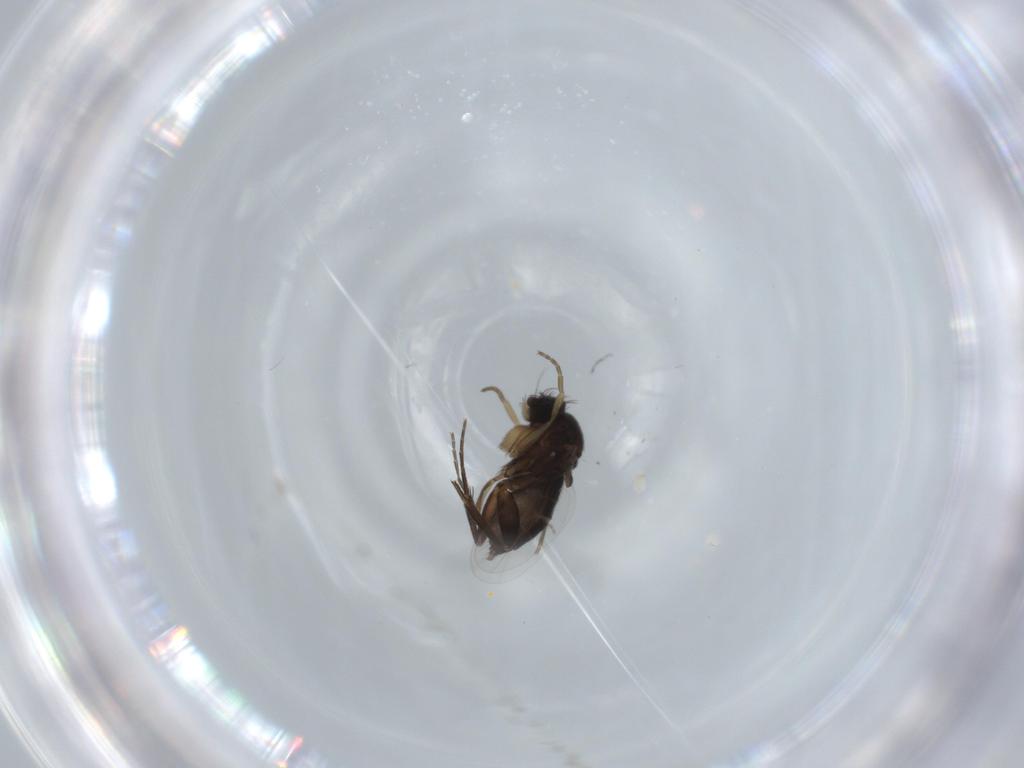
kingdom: Animalia
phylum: Arthropoda
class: Insecta
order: Diptera
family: Phoridae
